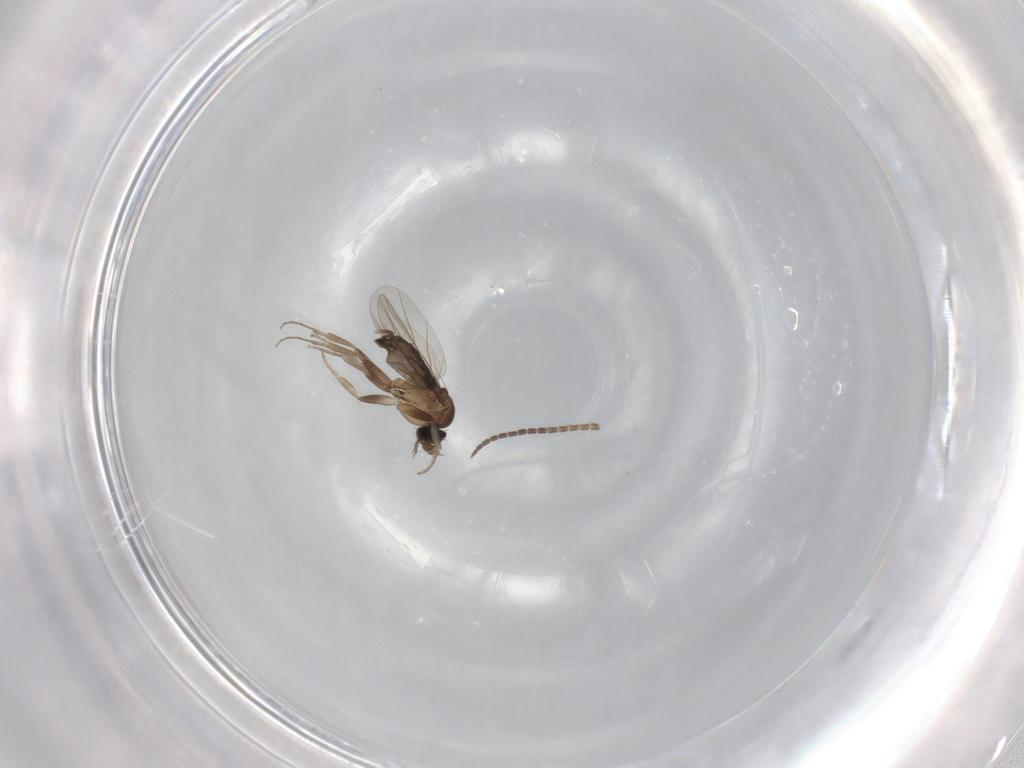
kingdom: Animalia
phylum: Arthropoda
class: Insecta
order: Diptera
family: Phoridae
